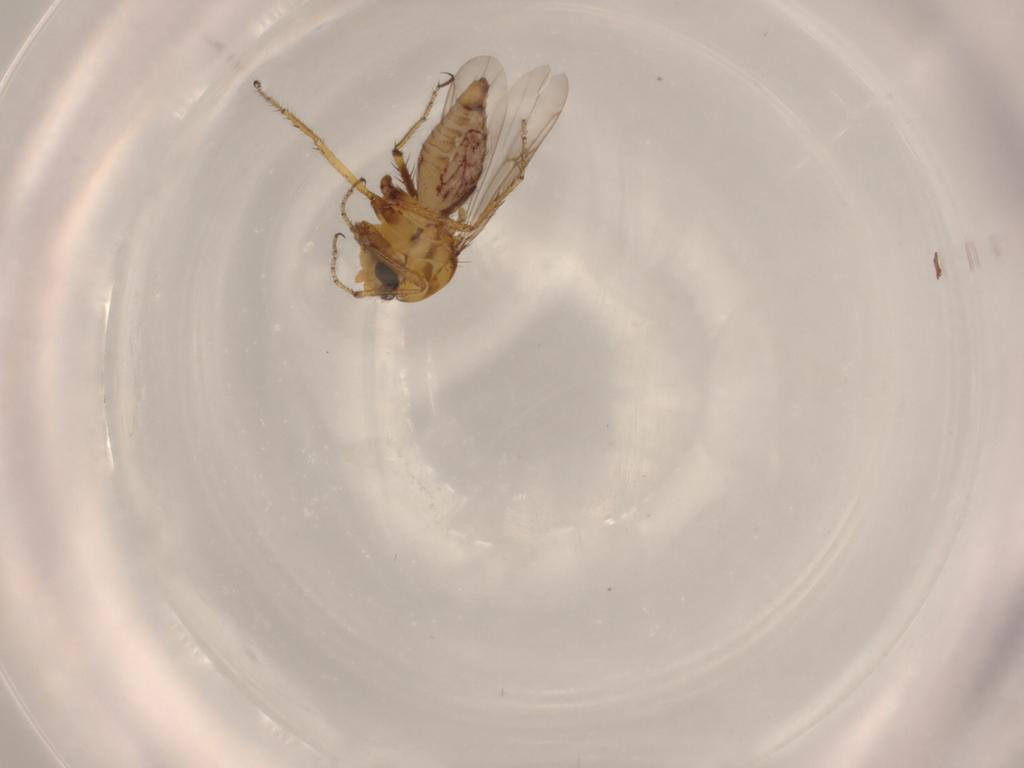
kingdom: Animalia
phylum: Arthropoda
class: Insecta
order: Diptera
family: Ceratopogonidae
